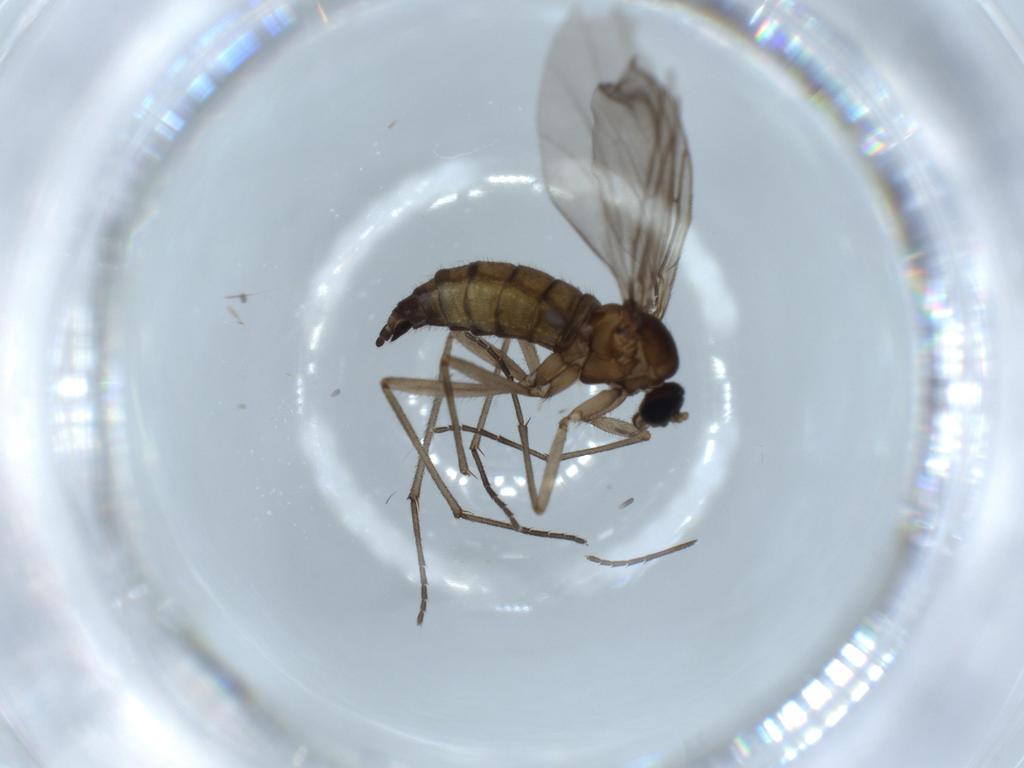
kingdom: Animalia
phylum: Arthropoda
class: Insecta
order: Diptera
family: Sciaridae
